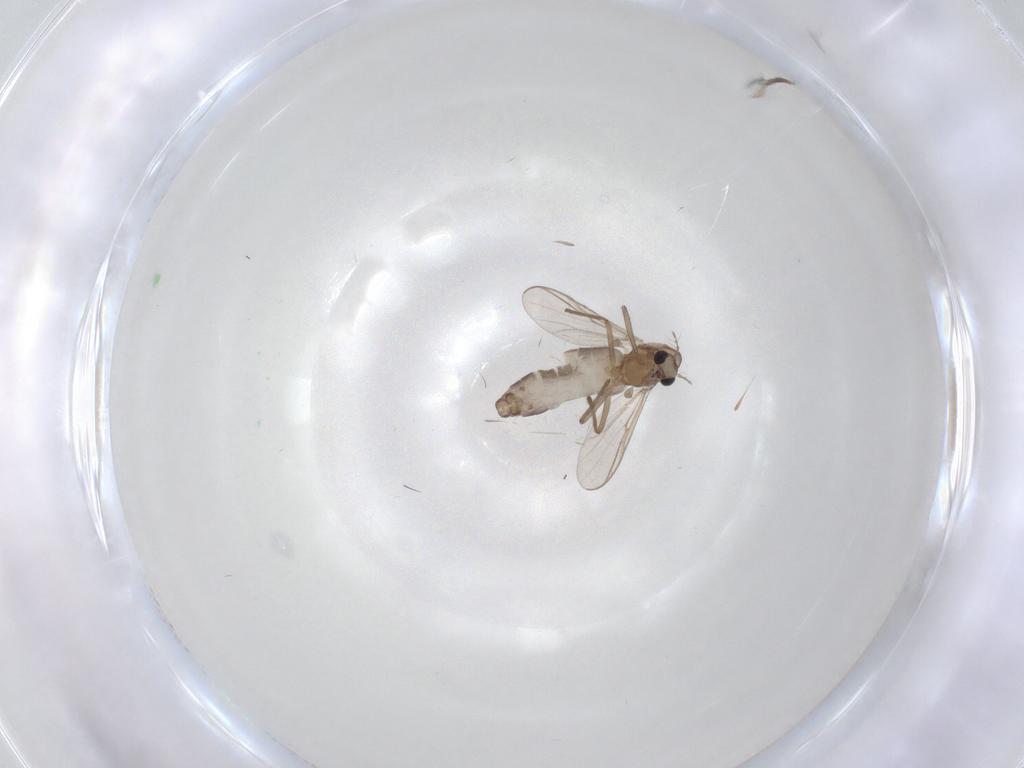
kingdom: Animalia
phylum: Arthropoda
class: Insecta
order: Diptera
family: Chironomidae
